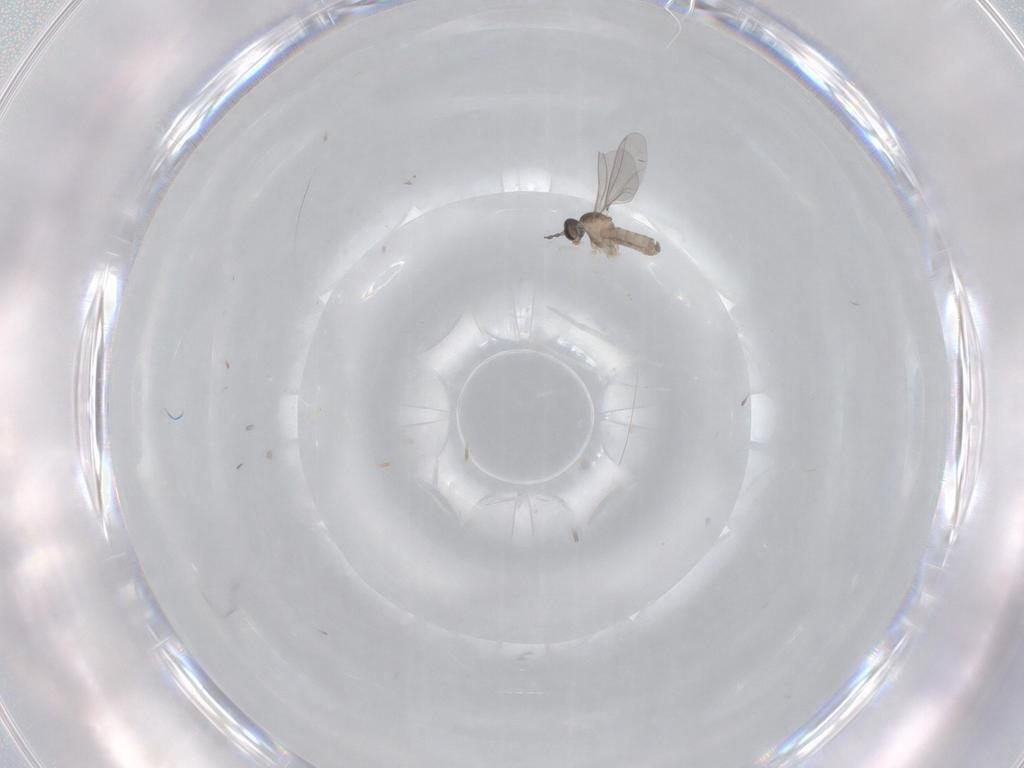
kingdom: Animalia
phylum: Arthropoda
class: Insecta
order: Diptera
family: Cecidomyiidae
